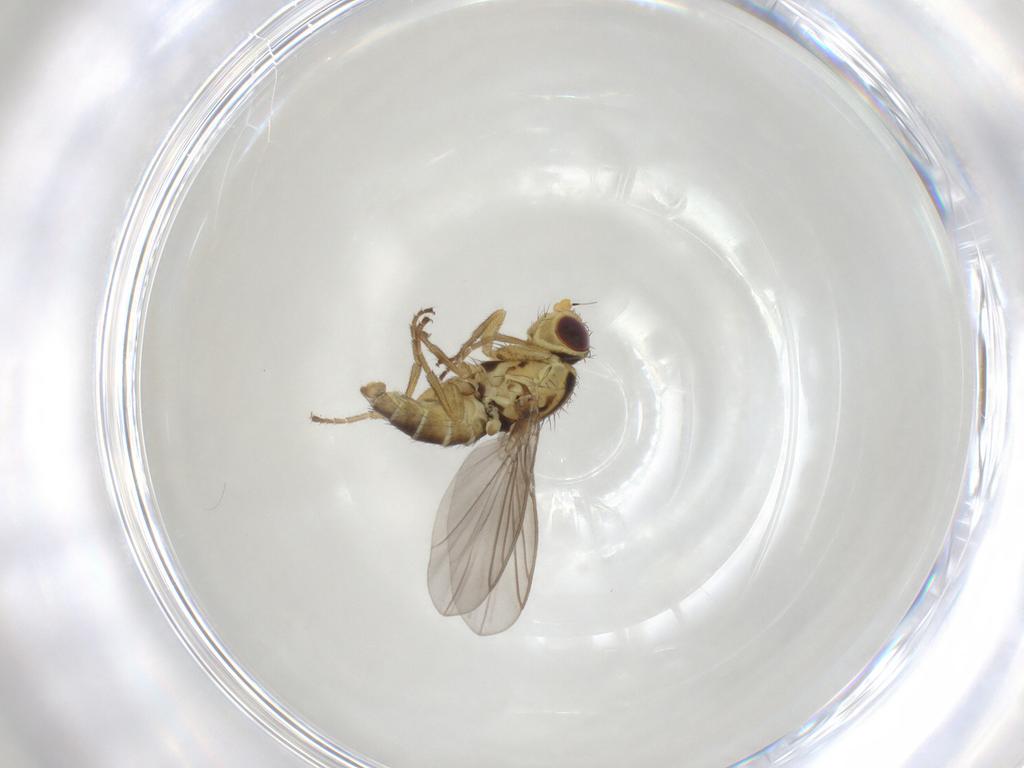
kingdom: Animalia
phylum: Arthropoda
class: Insecta
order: Diptera
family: Agromyzidae
